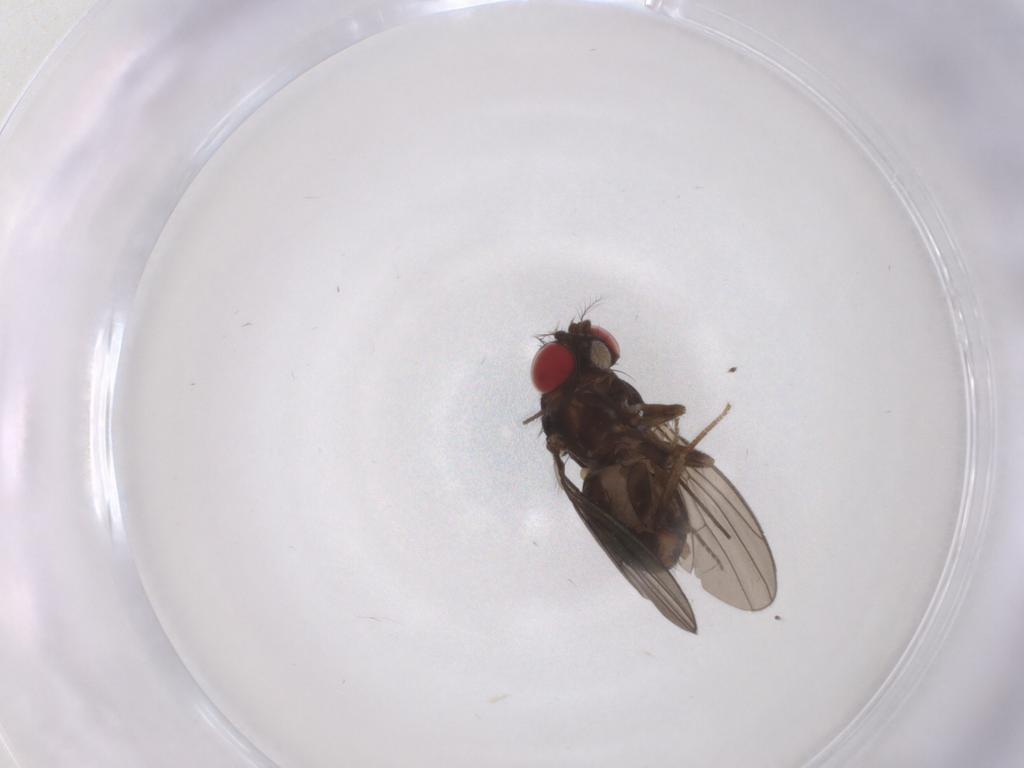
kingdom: Animalia
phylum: Arthropoda
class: Insecta
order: Diptera
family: Drosophilidae
